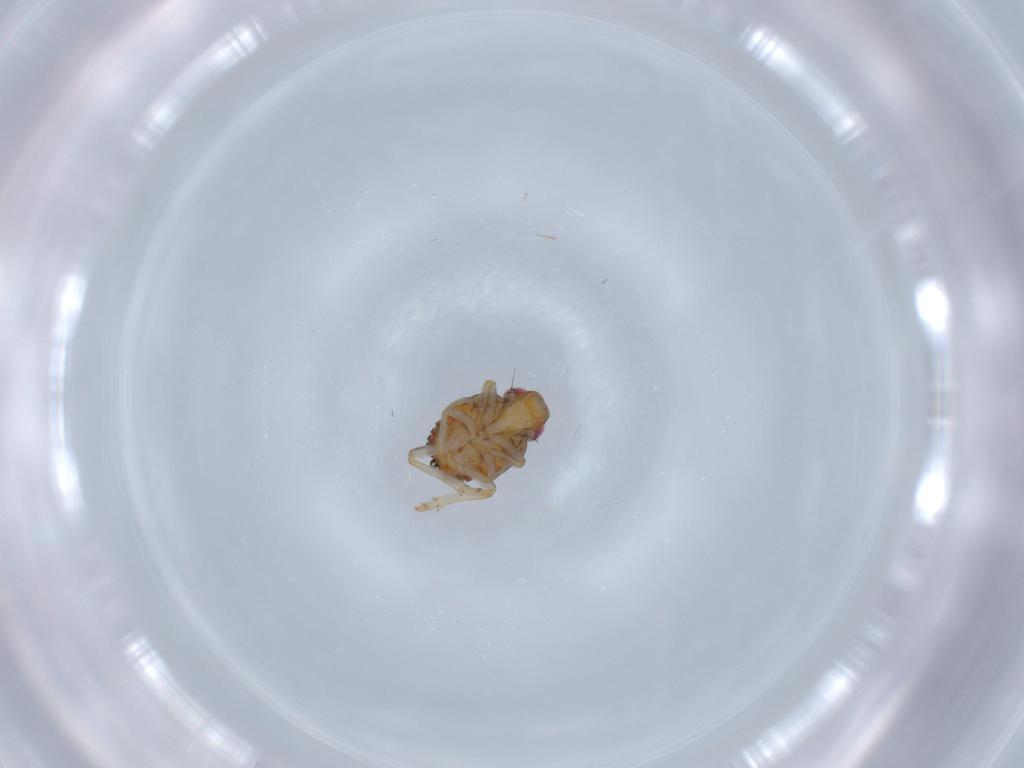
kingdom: Animalia
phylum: Arthropoda
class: Insecta
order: Hemiptera
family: Issidae
